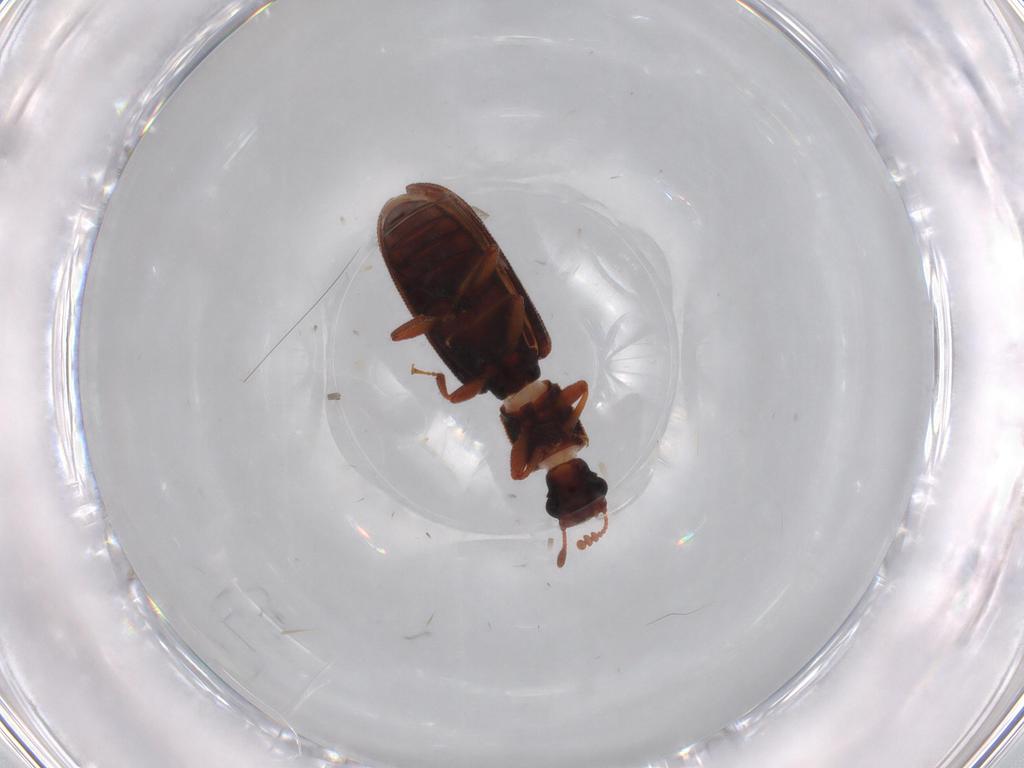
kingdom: Animalia
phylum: Arthropoda
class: Insecta
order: Coleoptera
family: Zopheridae
